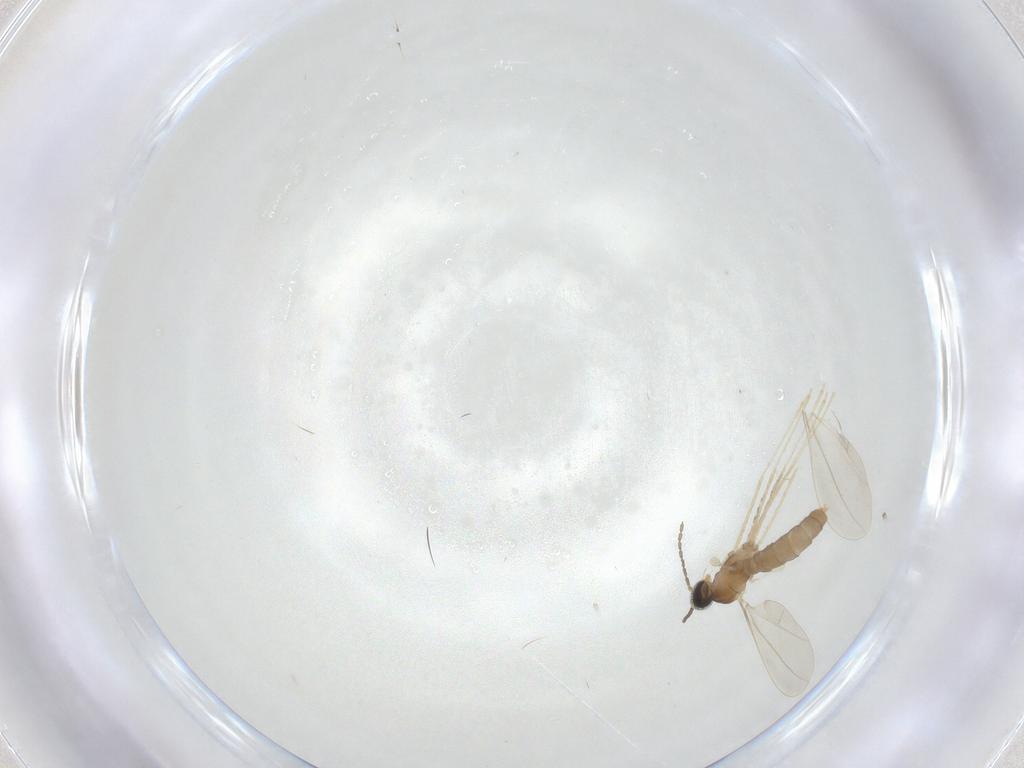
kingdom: Animalia
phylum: Arthropoda
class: Insecta
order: Diptera
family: Cecidomyiidae
